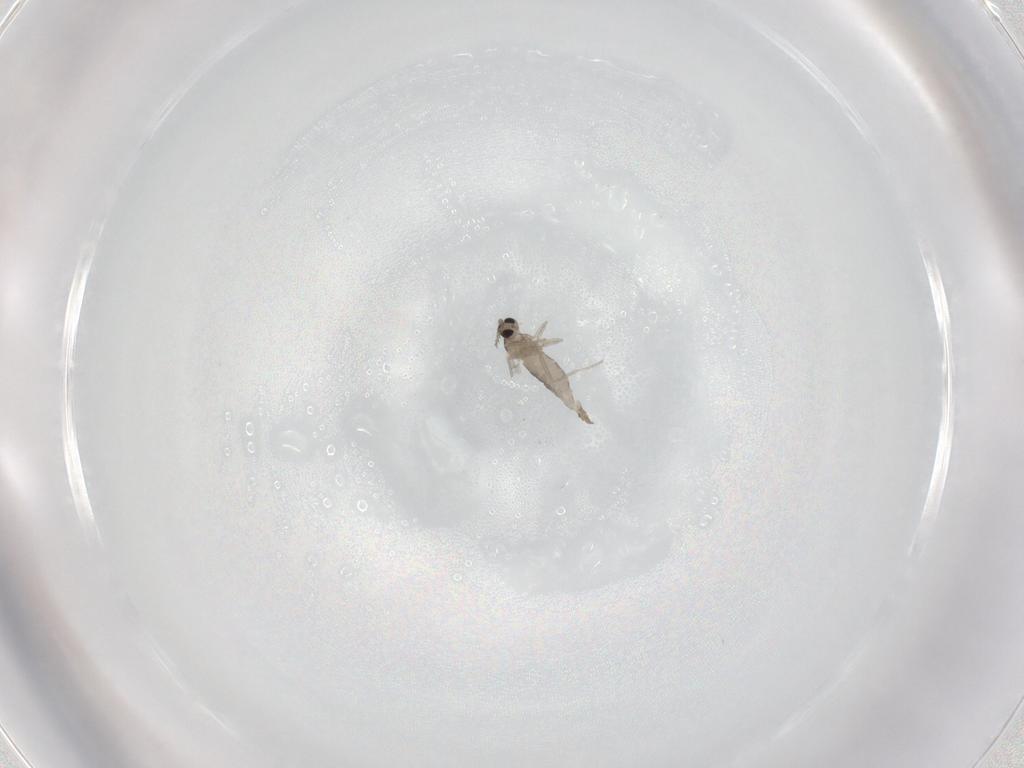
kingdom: Animalia
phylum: Arthropoda
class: Insecta
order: Diptera
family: Cecidomyiidae
